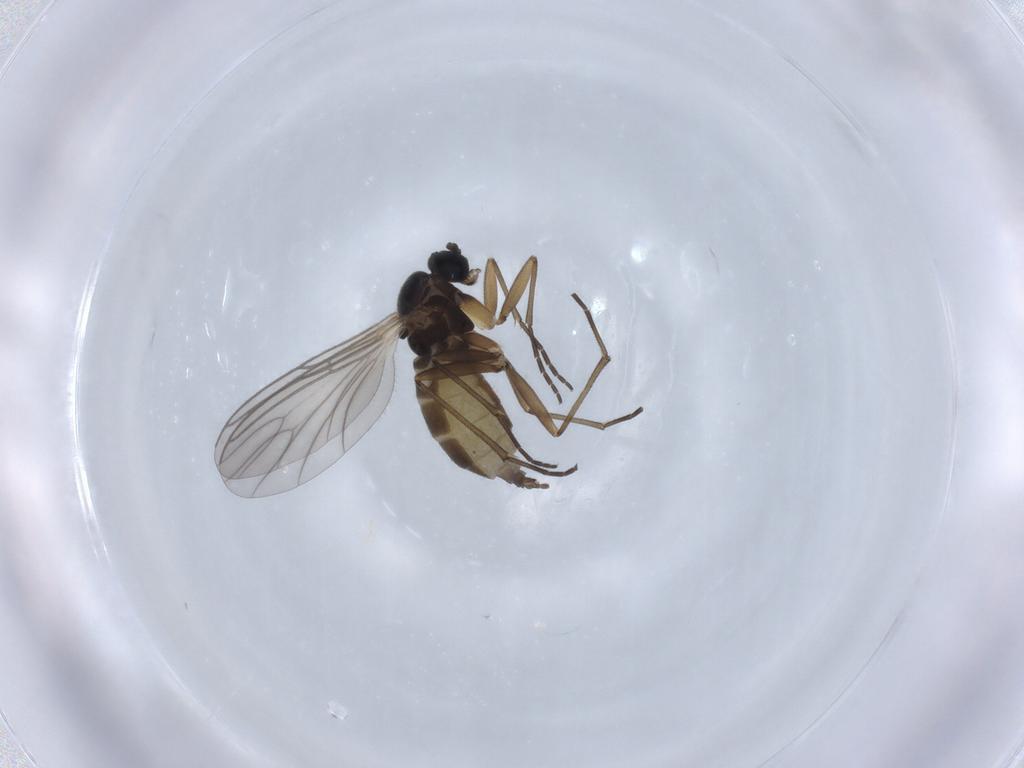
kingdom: Animalia
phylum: Arthropoda
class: Insecta
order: Diptera
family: Sciaridae
